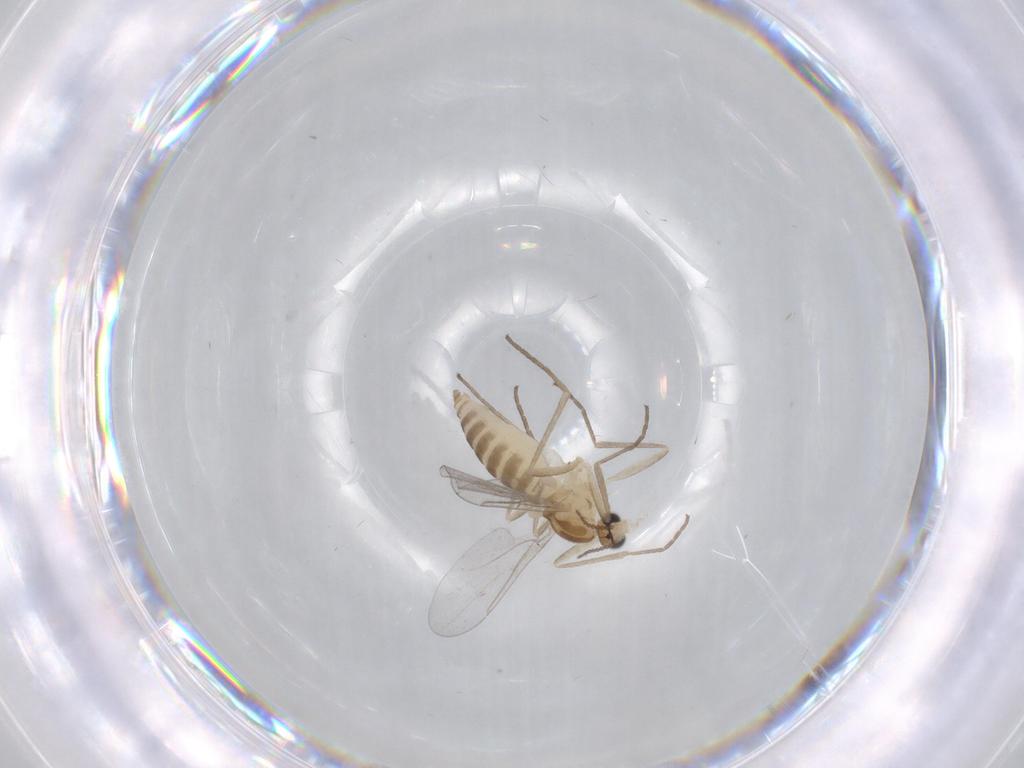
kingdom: Animalia
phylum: Arthropoda
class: Insecta
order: Diptera
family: Cecidomyiidae
